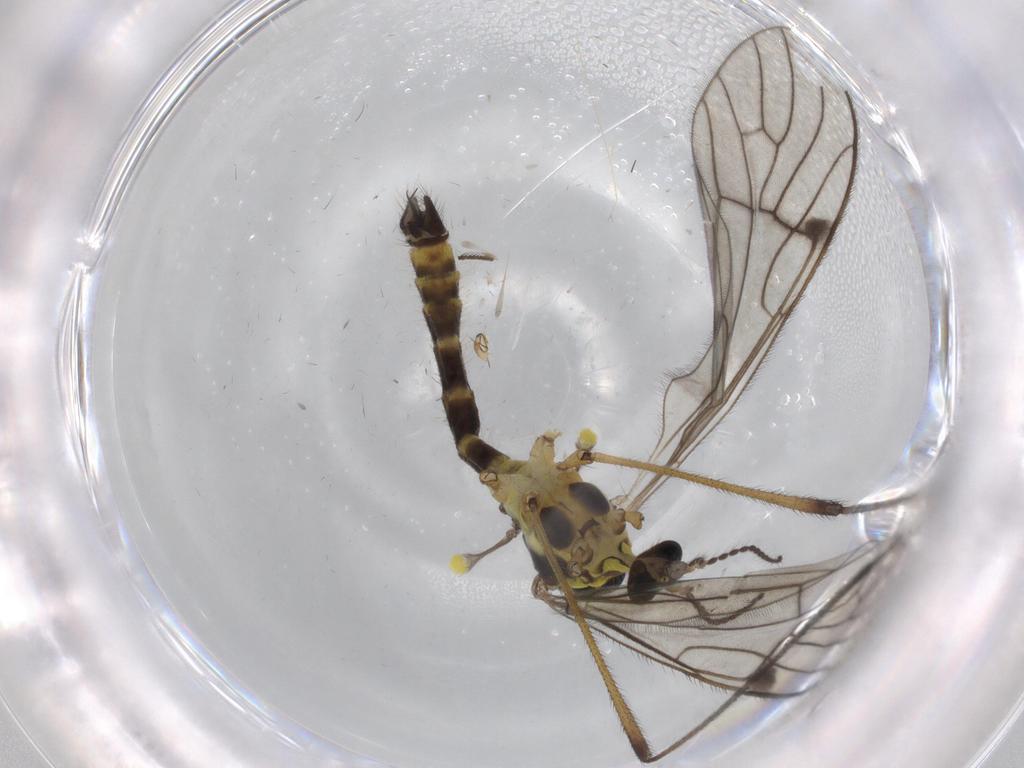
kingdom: Animalia
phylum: Arthropoda
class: Insecta
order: Diptera
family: Limoniidae
